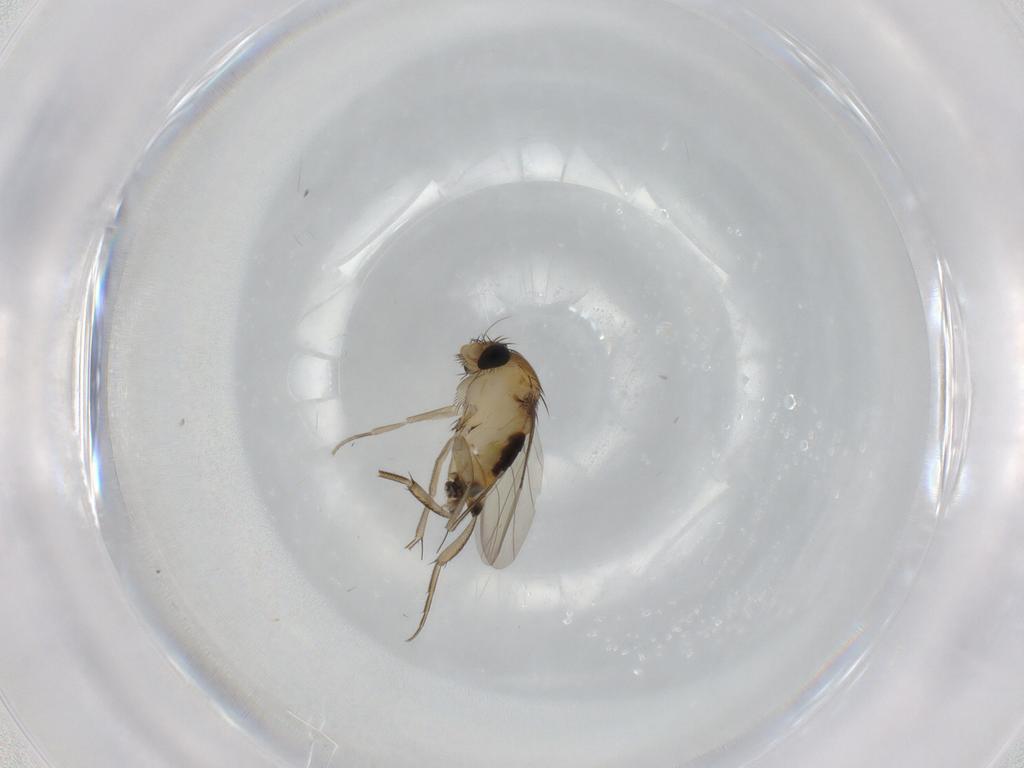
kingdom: Animalia
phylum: Arthropoda
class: Insecta
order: Diptera
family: Phoridae
